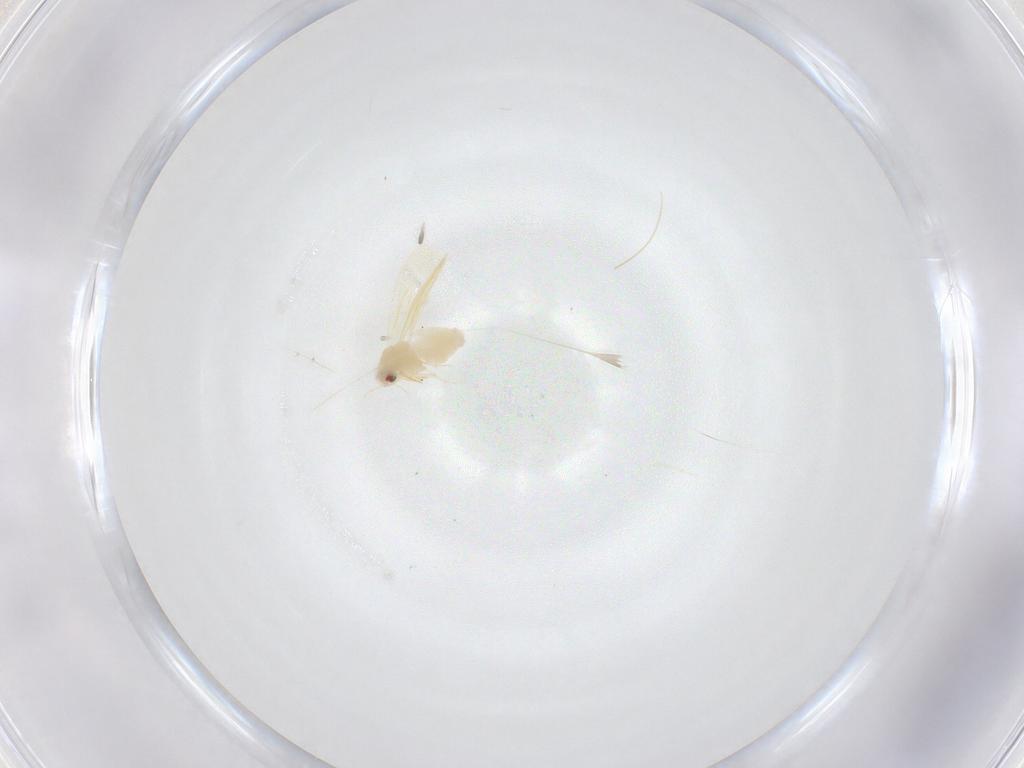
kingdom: Animalia
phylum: Arthropoda
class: Insecta
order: Hemiptera
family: Aleyrodidae
